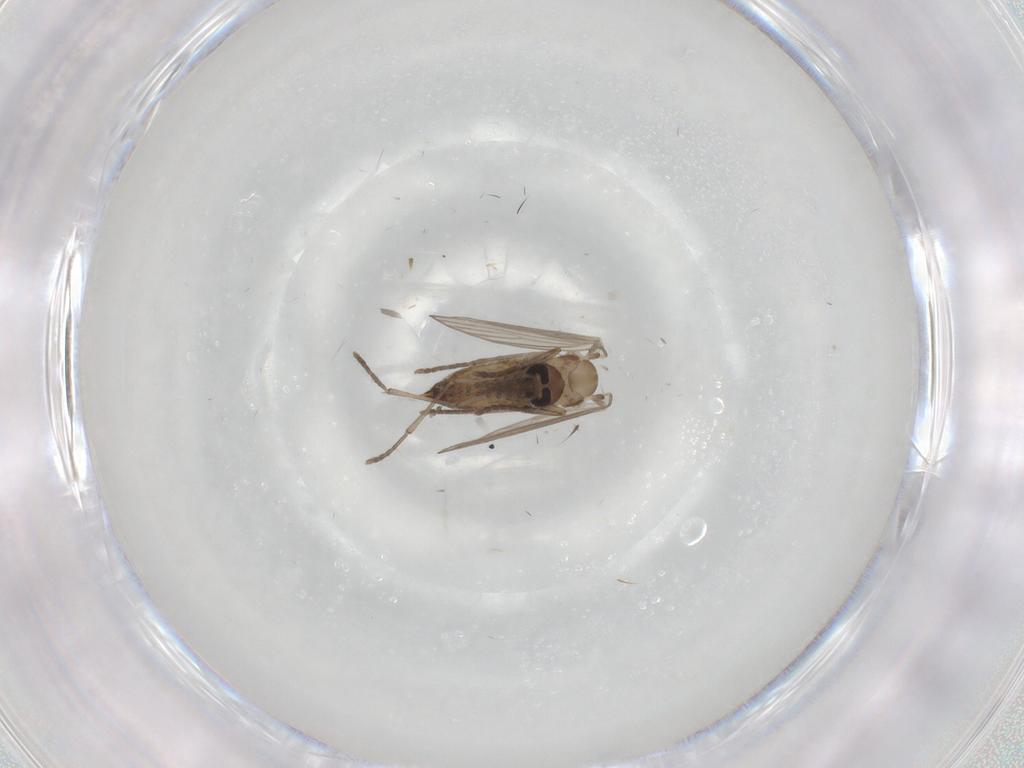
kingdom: Animalia
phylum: Arthropoda
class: Insecta
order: Diptera
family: Psychodidae
